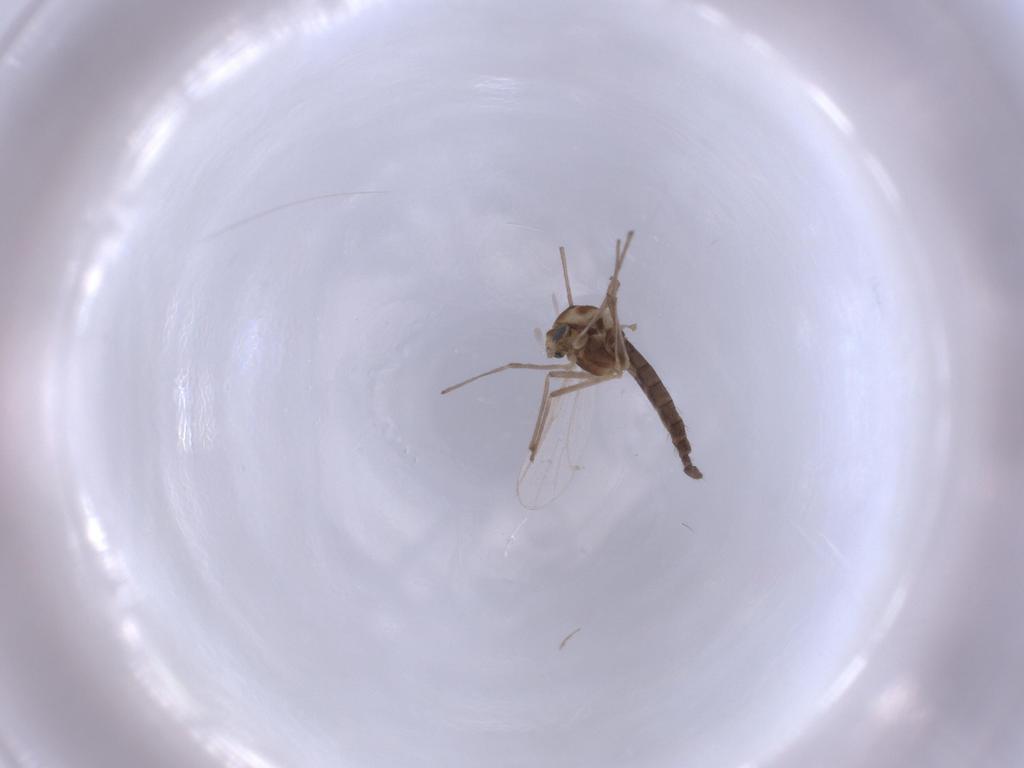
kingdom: Animalia
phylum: Arthropoda
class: Insecta
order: Diptera
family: Chironomidae
